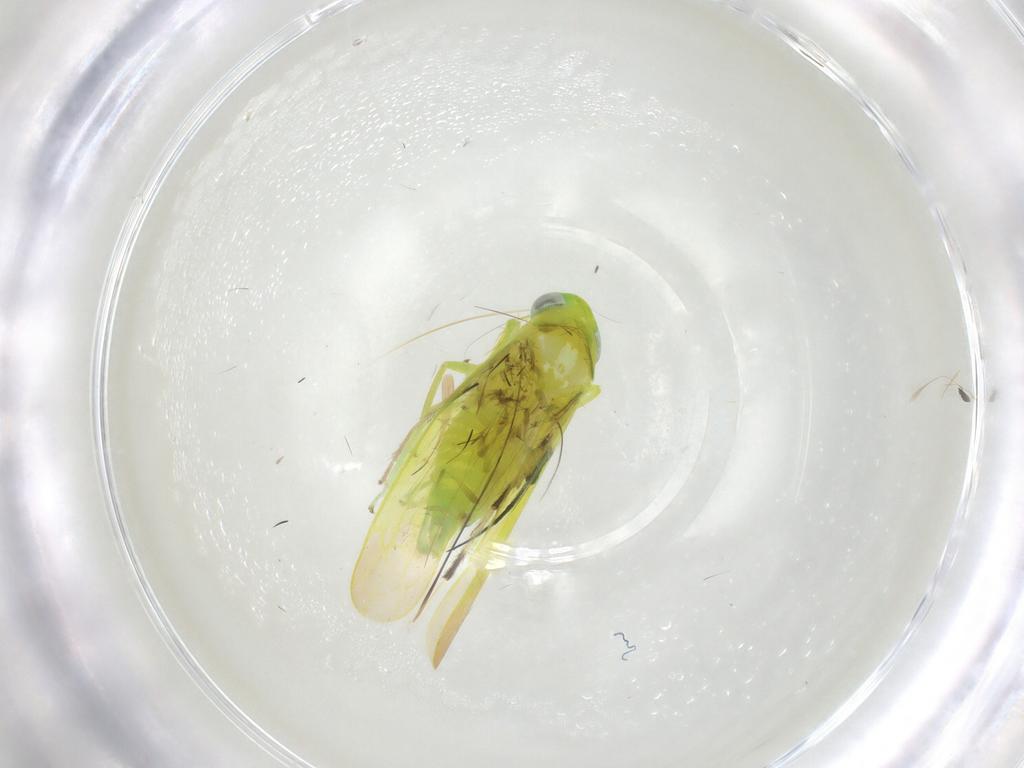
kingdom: Animalia
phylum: Arthropoda
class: Insecta
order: Hemiptera
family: Cicadellidae
